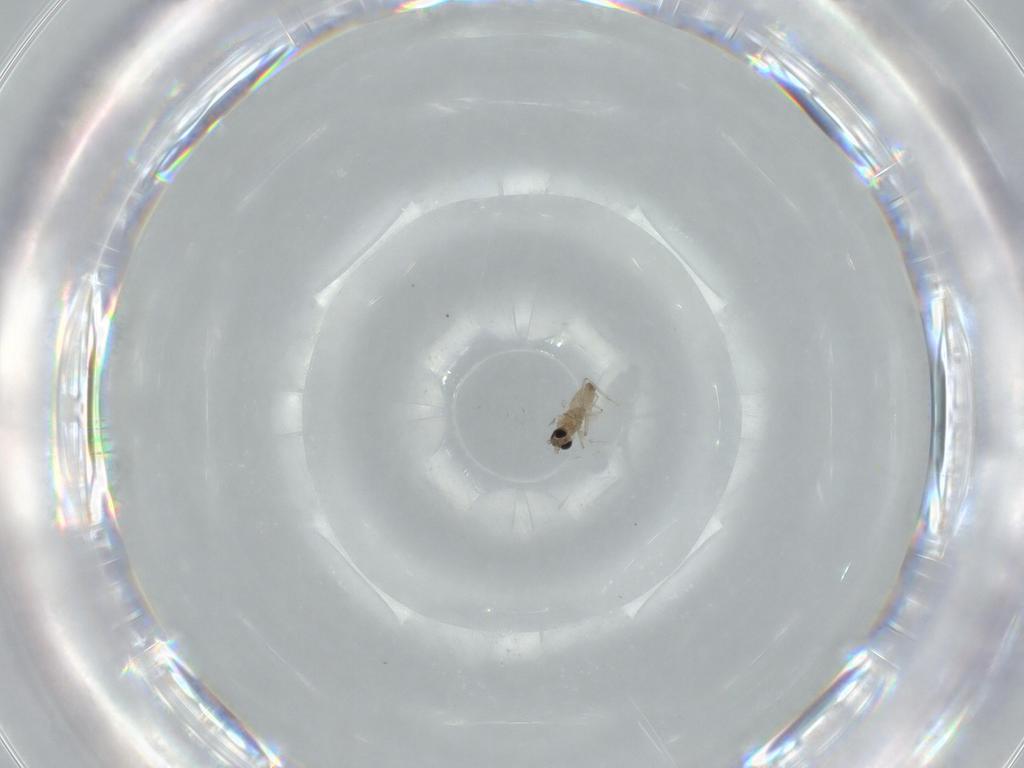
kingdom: Animalia
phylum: Arthropoda
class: Insecta
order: Diptera
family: Cecidomyiidae
